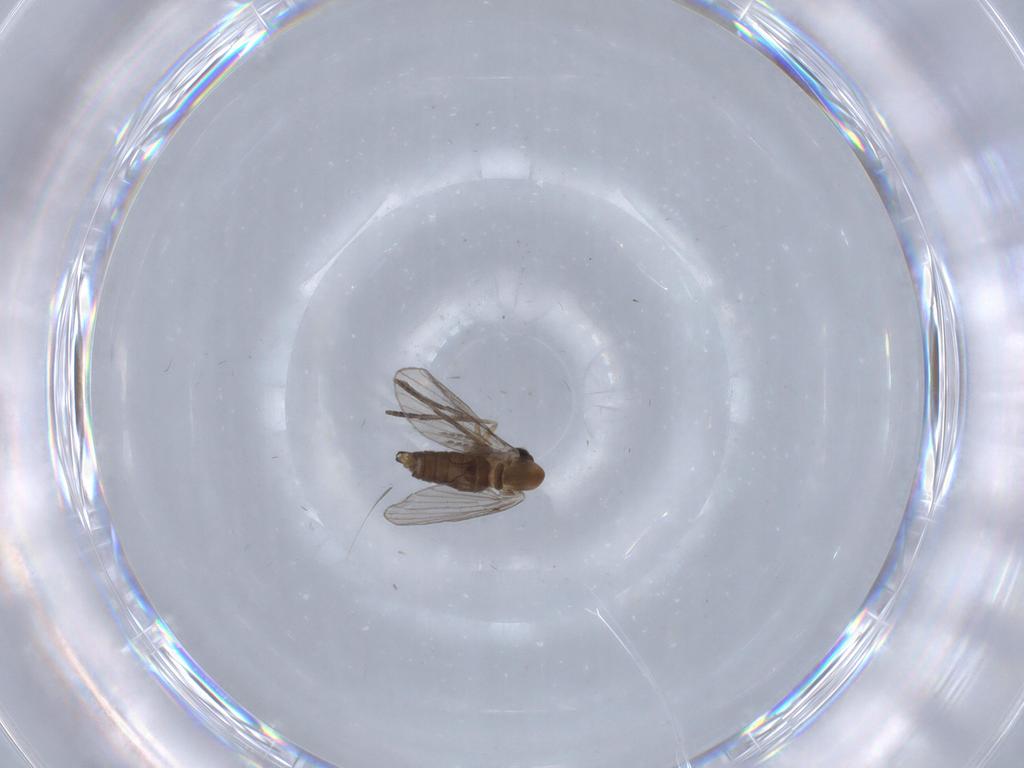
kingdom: Animalia
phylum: Arthropoda
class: Insecta
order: Diptera
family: Chironomidae
